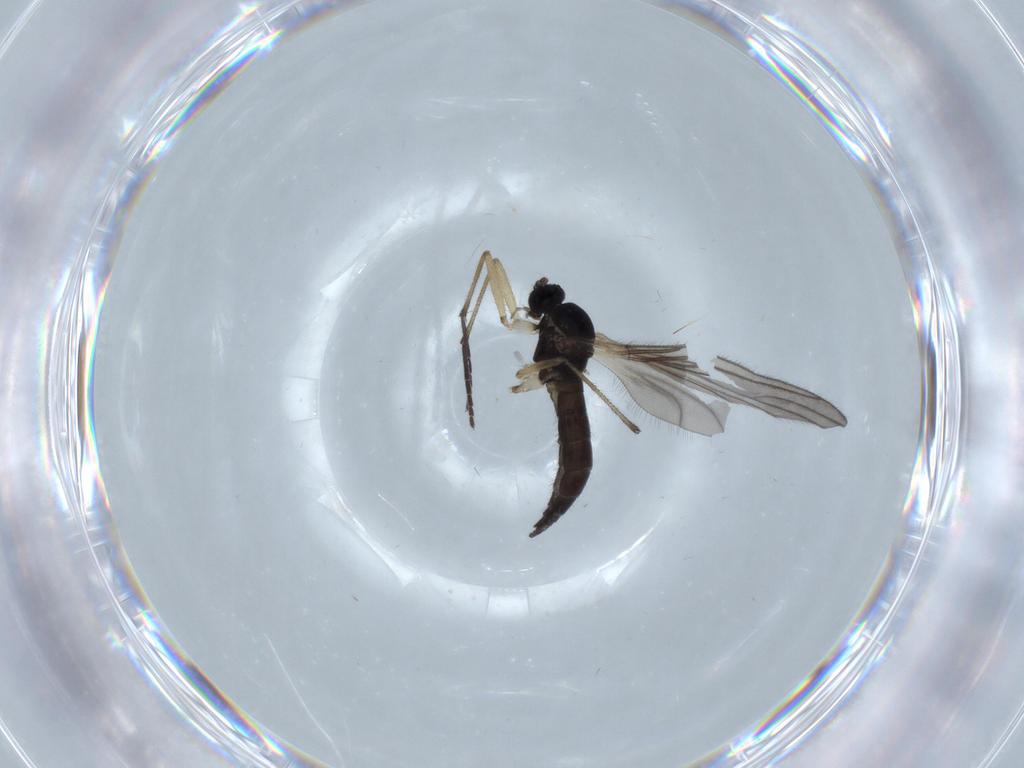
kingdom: Animalia
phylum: Arthropoda
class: Insecta
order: Diptera
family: Sciaridae
